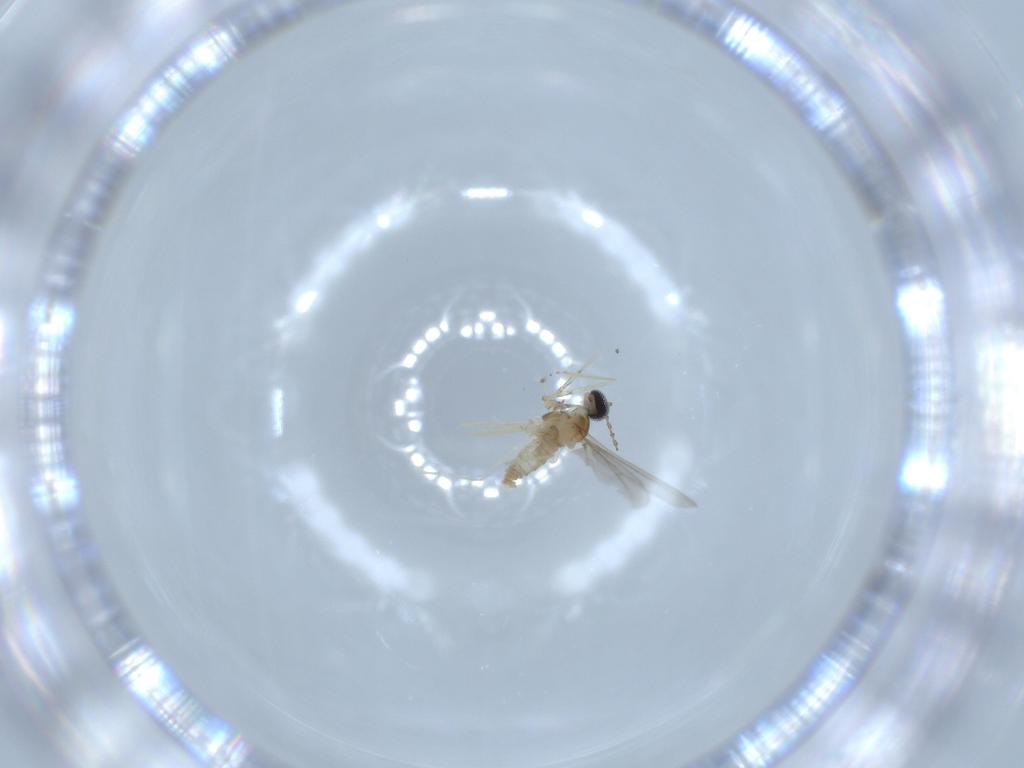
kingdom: Animalia
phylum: Arthropoda
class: Insecta
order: Diptera
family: Cecidomyiidae
